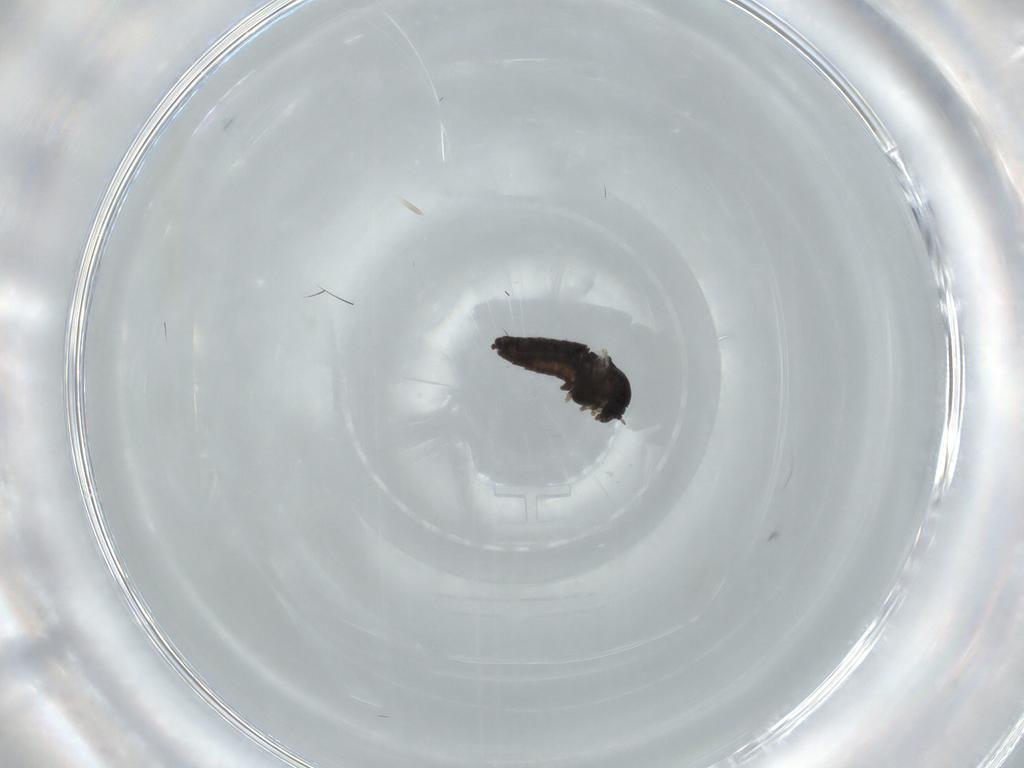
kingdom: Animalia
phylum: Arthropoda
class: Insecta
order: Diptera
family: Chironomidae
